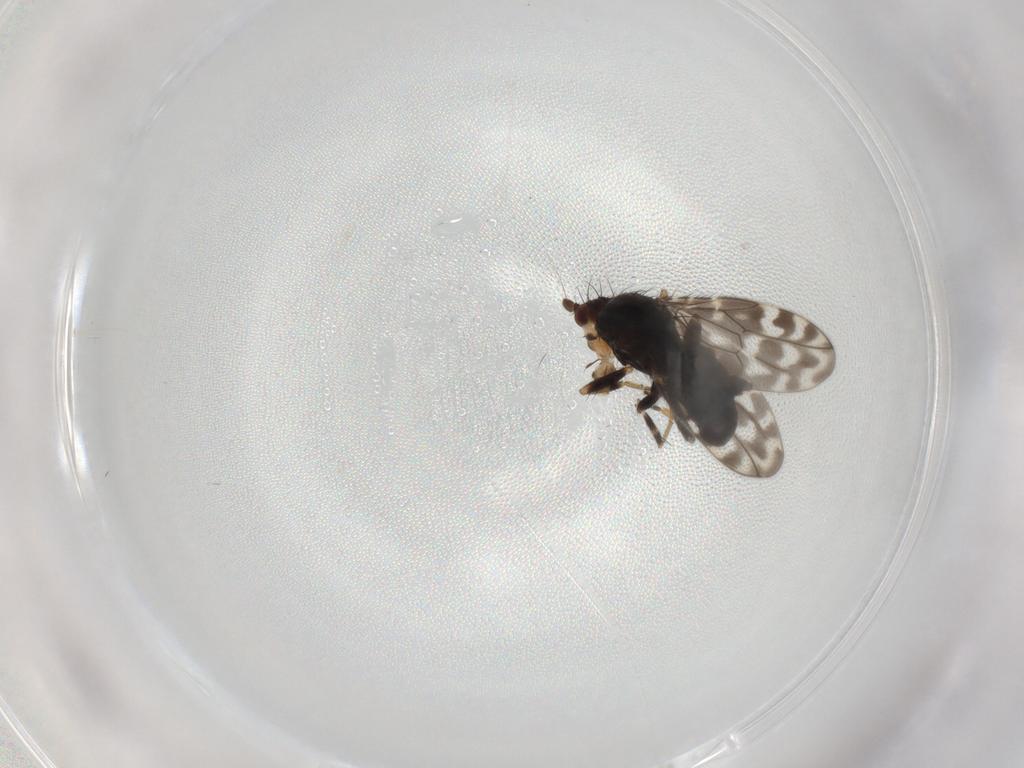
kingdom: Animalia
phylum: Arthropoda
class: Insecta
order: Diptera
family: Sphaeroceridae
